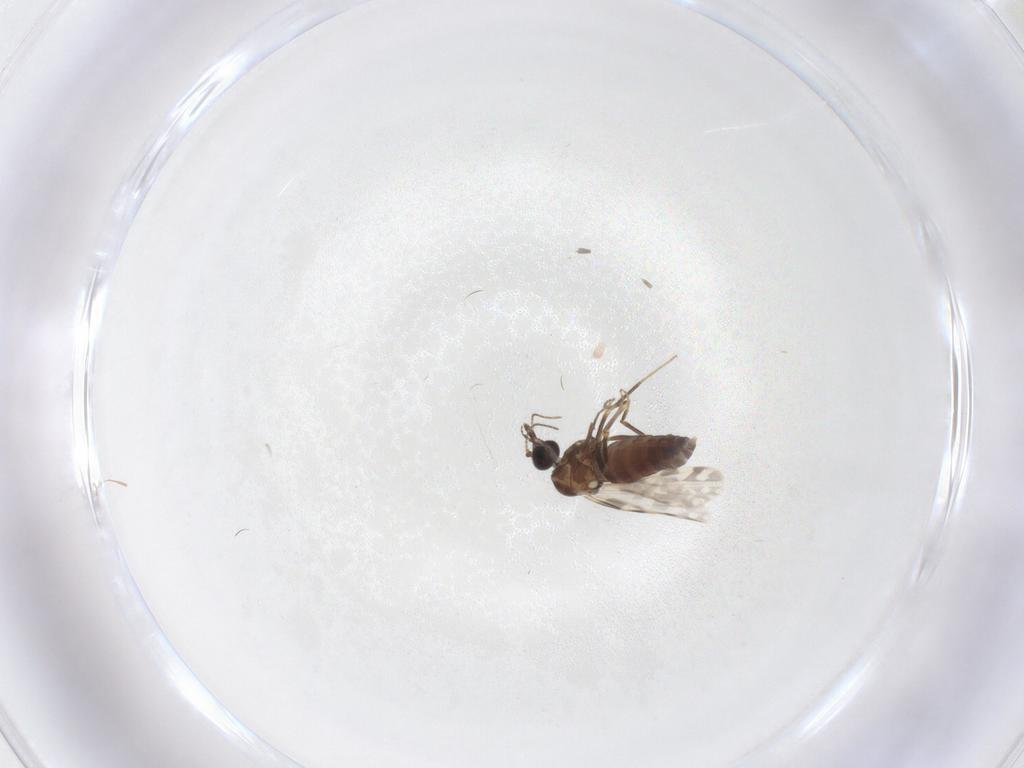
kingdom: Animalia
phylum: Arthropoda
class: Insecta
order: Diptera
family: Ceratopogonidae
